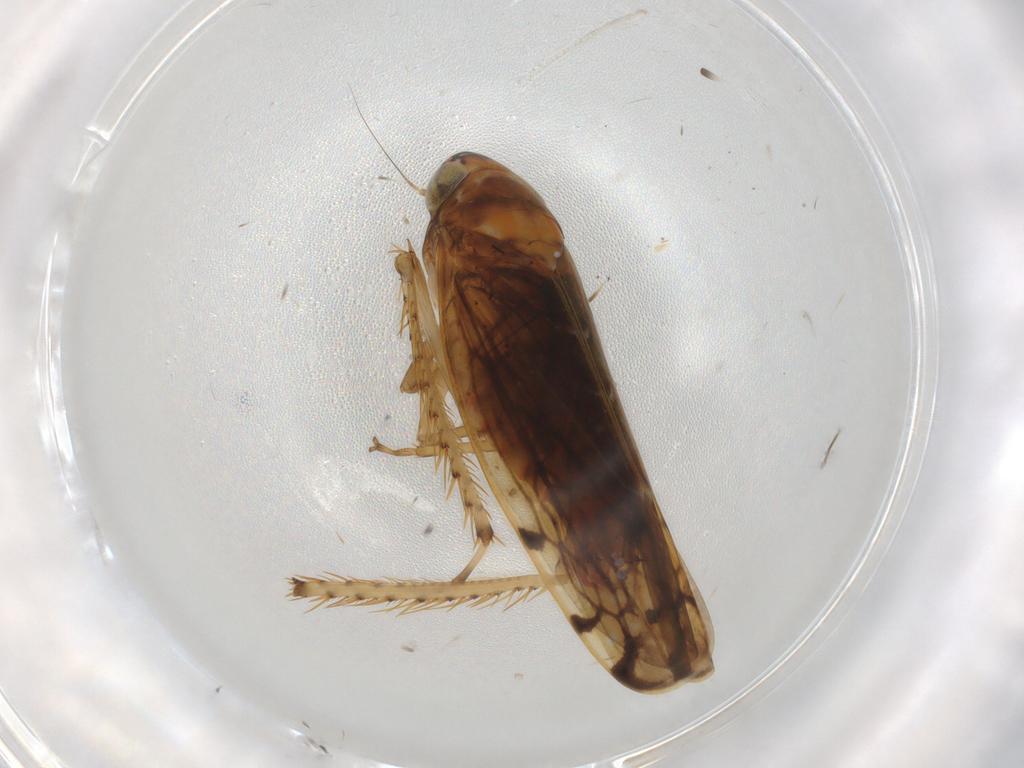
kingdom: Animalia
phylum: Arthropoda
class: Insecta
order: Hemiptera
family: Cicadellidae
